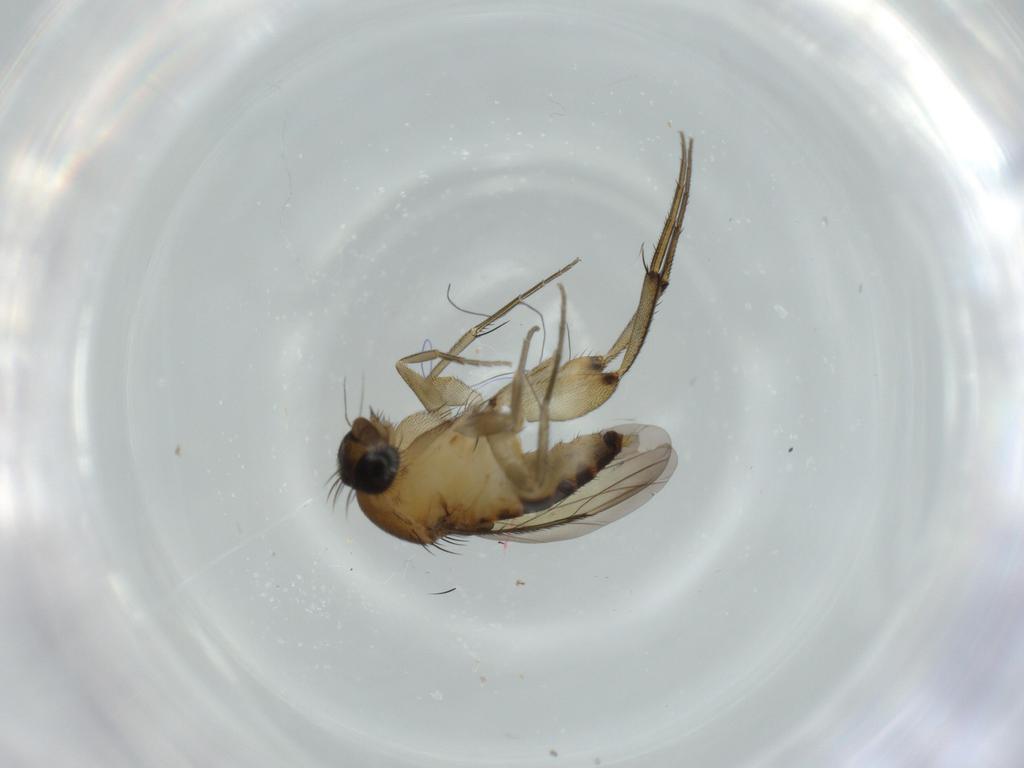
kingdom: Animalia
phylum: Arthropoda
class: Insecta
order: Diptera
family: Phoridae
